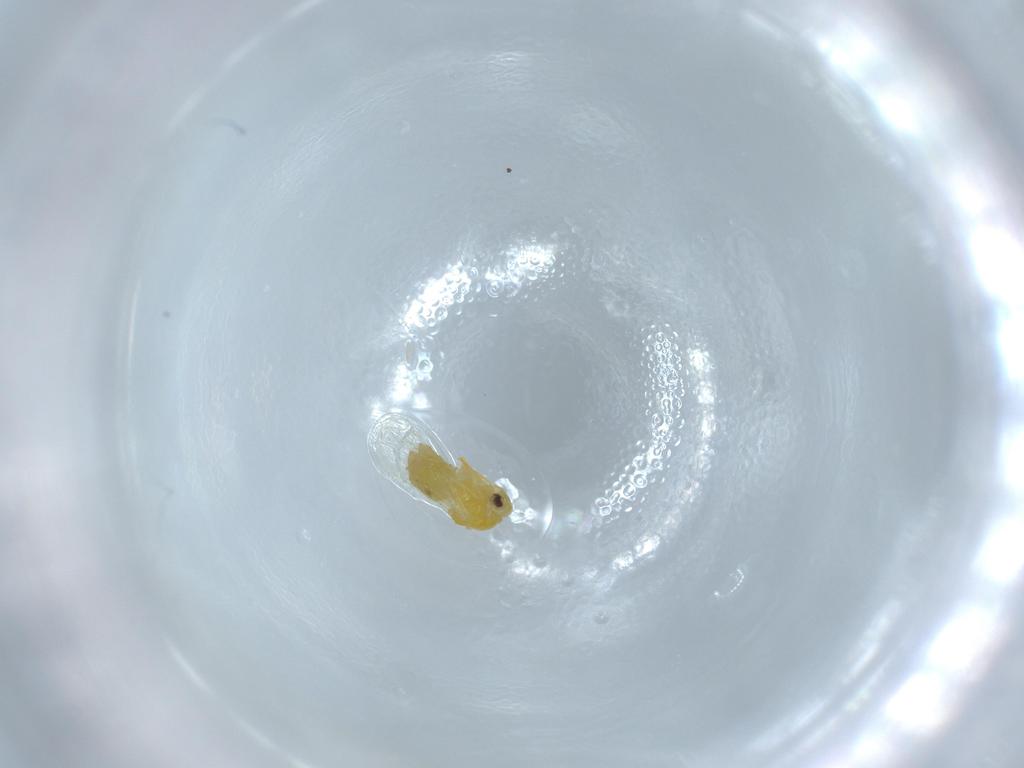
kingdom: Animalia
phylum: Arthropoda
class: Insecta
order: Hemiptera
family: Aleyrodidae
